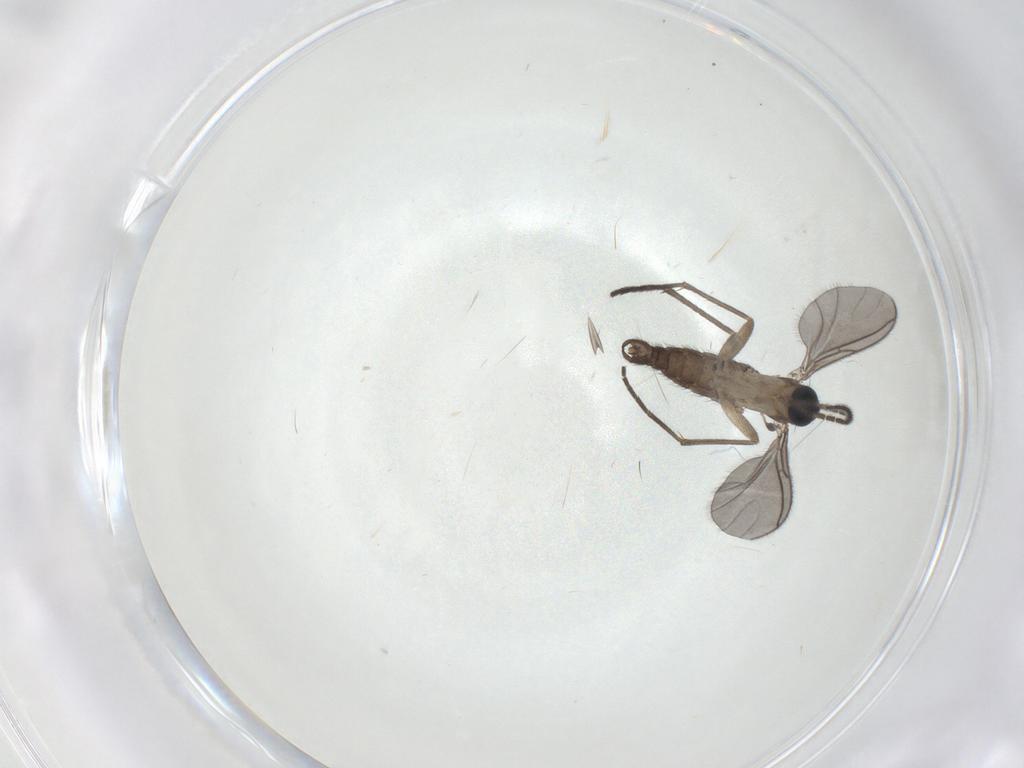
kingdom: Animalia
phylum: Arthropoda
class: Insecta
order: Diptera
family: Sciaridae
